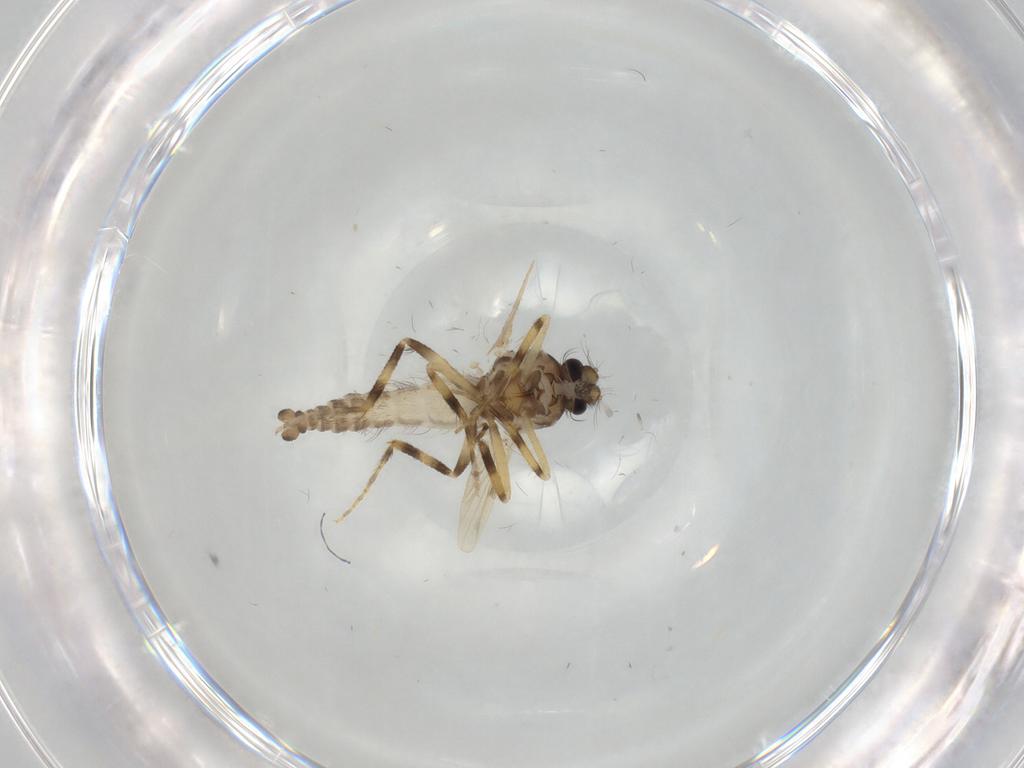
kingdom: Animalia
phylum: Arthropoda
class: Insecta
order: Diptera
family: Ceratopogonidae
